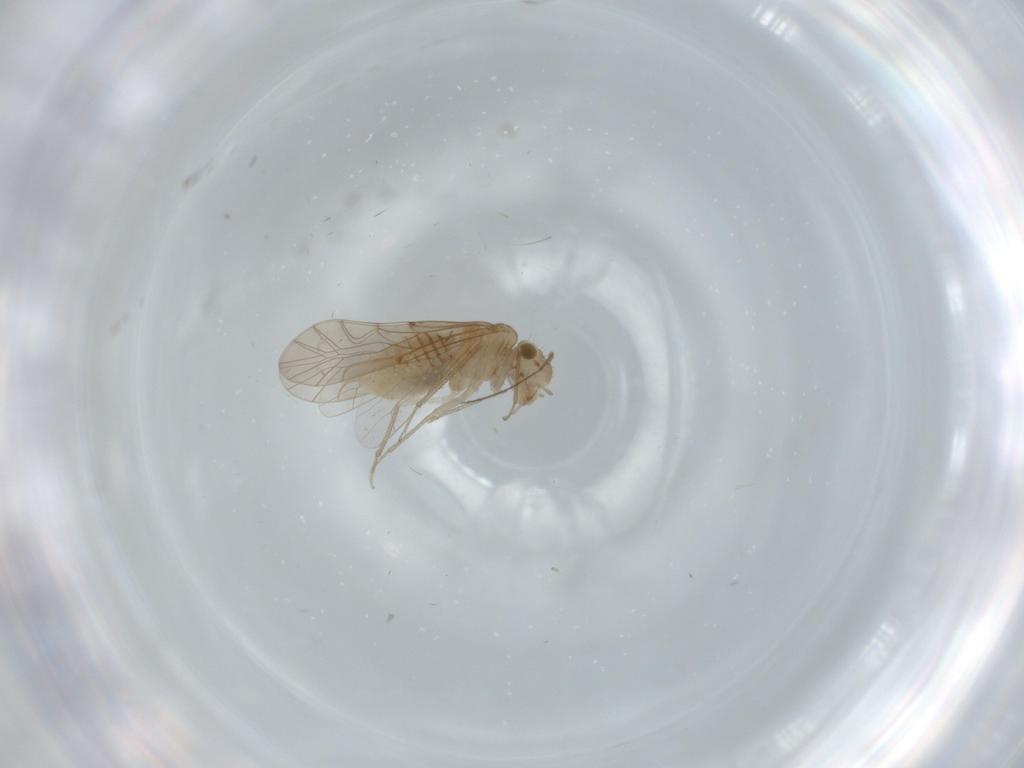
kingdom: Animalia
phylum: Arthropoda
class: Insecta
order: Psocodea
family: Lachesillidae
